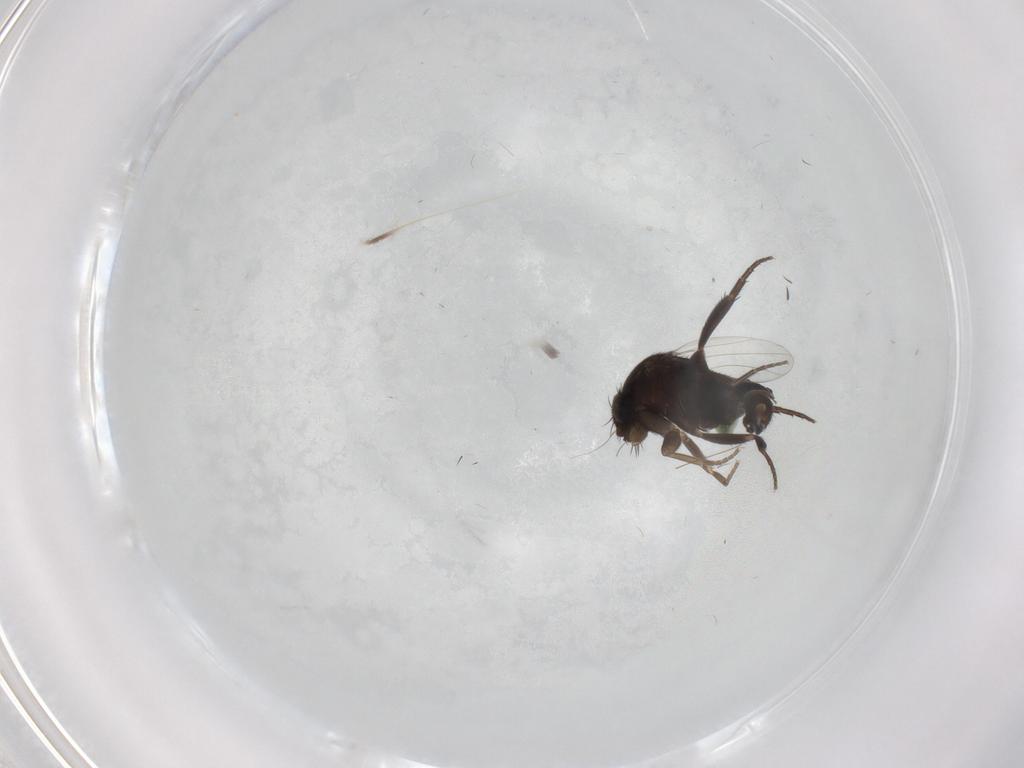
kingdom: Animalia
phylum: Arthropoda
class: Insecta
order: Diptera
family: Phoridae
